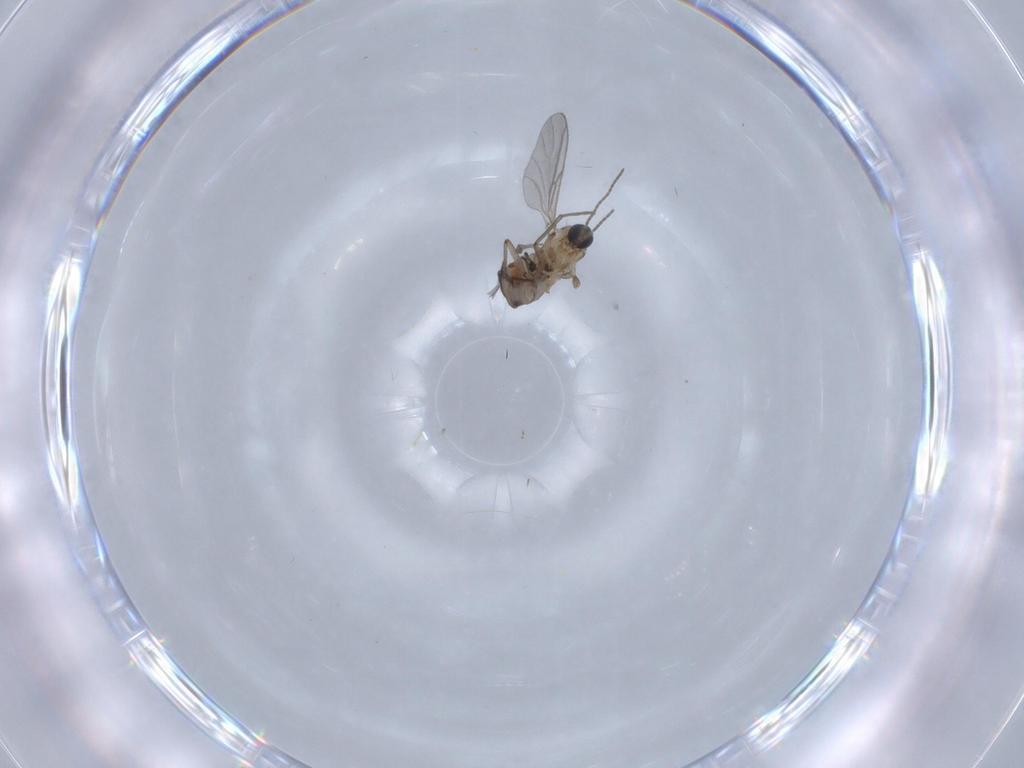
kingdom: Animalia
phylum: Arthropoda
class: Insecta
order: Diptera
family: Sciaridae
